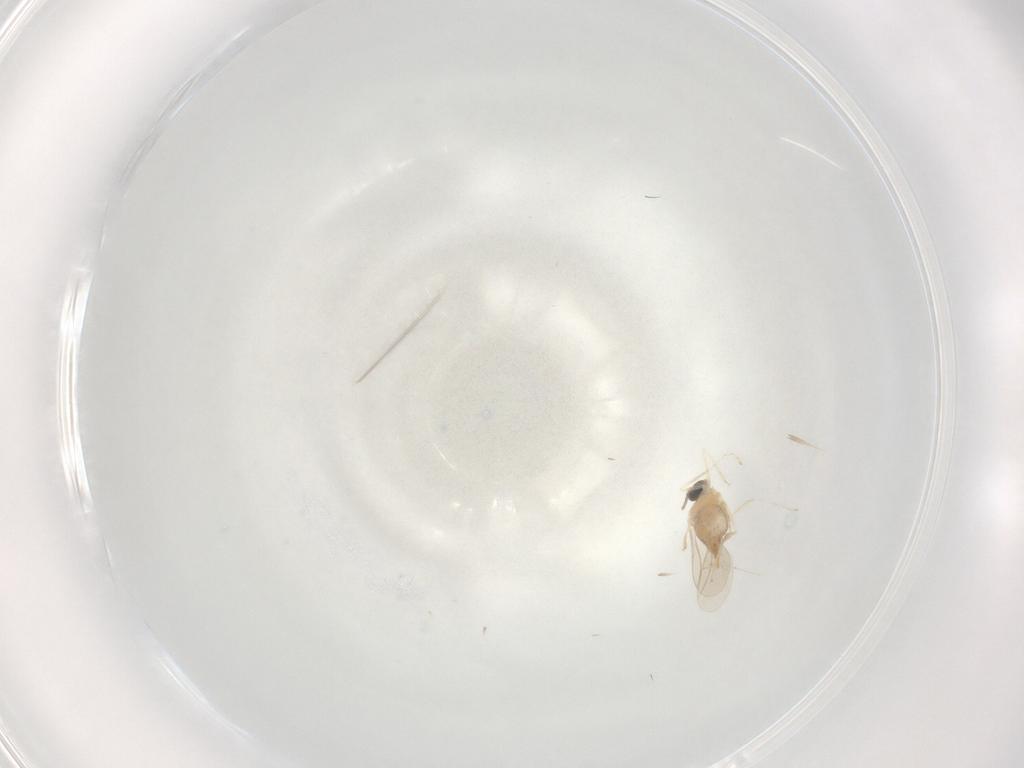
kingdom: Animalia
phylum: Arthropoda
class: Insecta
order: Diptera
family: Cecidomyiidae
